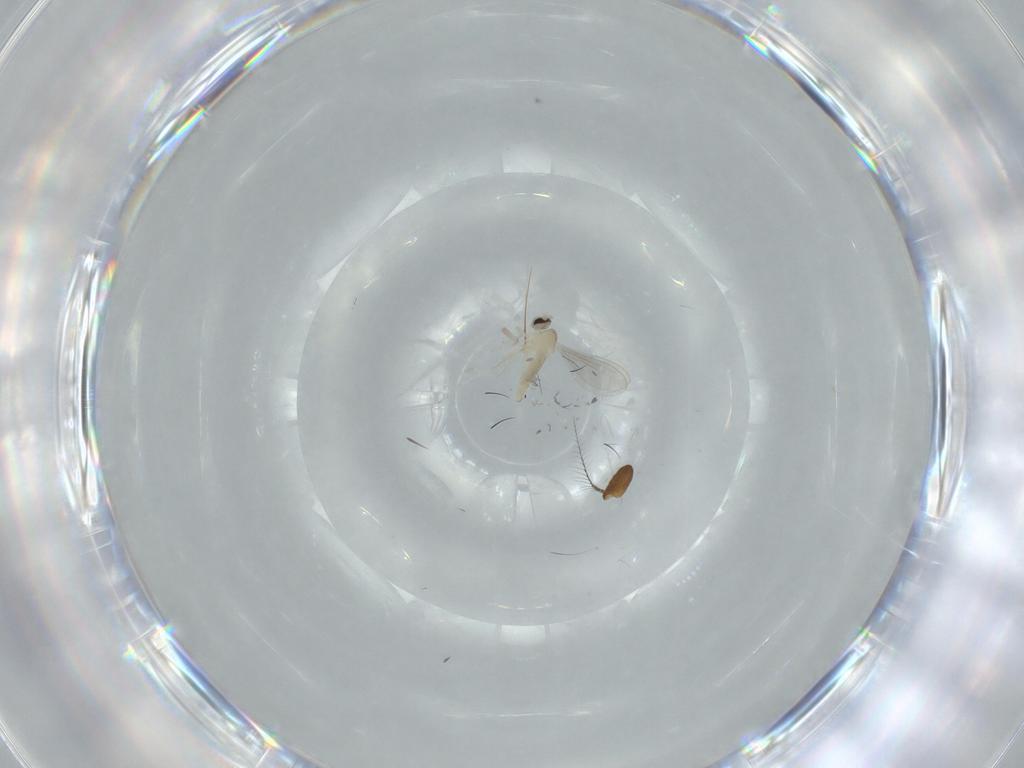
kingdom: Animalia
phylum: Arthropoda
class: Insecta
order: Diptera
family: Cecidomyiidae
